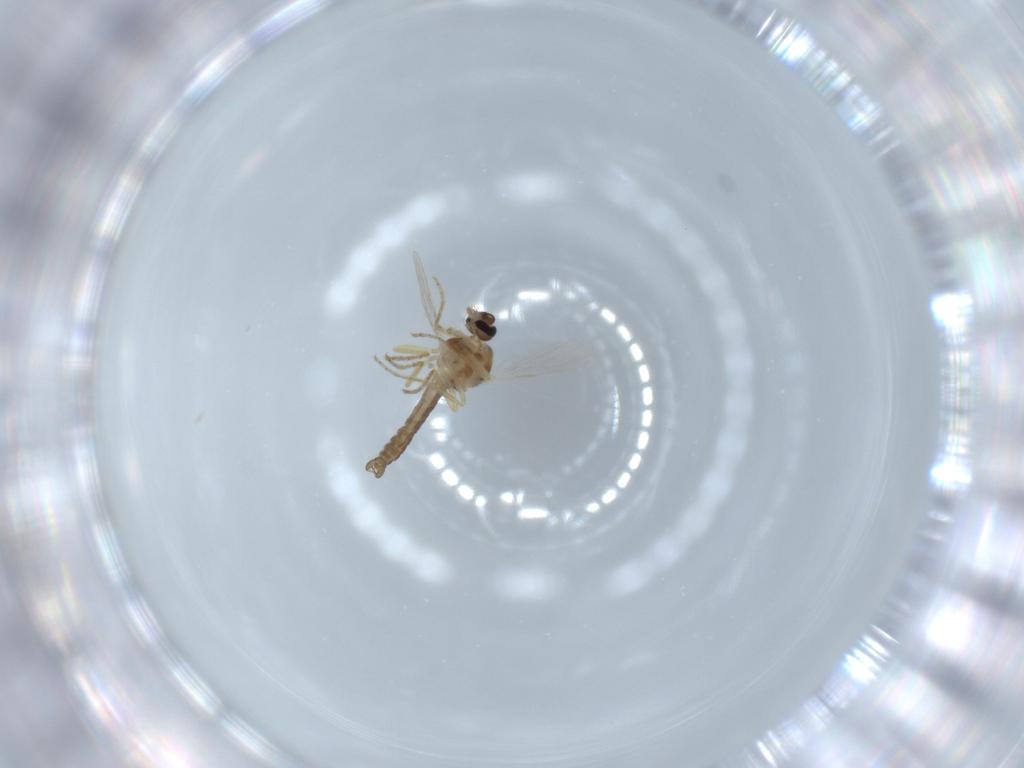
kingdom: Animalia
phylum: Arthropoda
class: Insecta
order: Diptera
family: Ceratopogonidae
